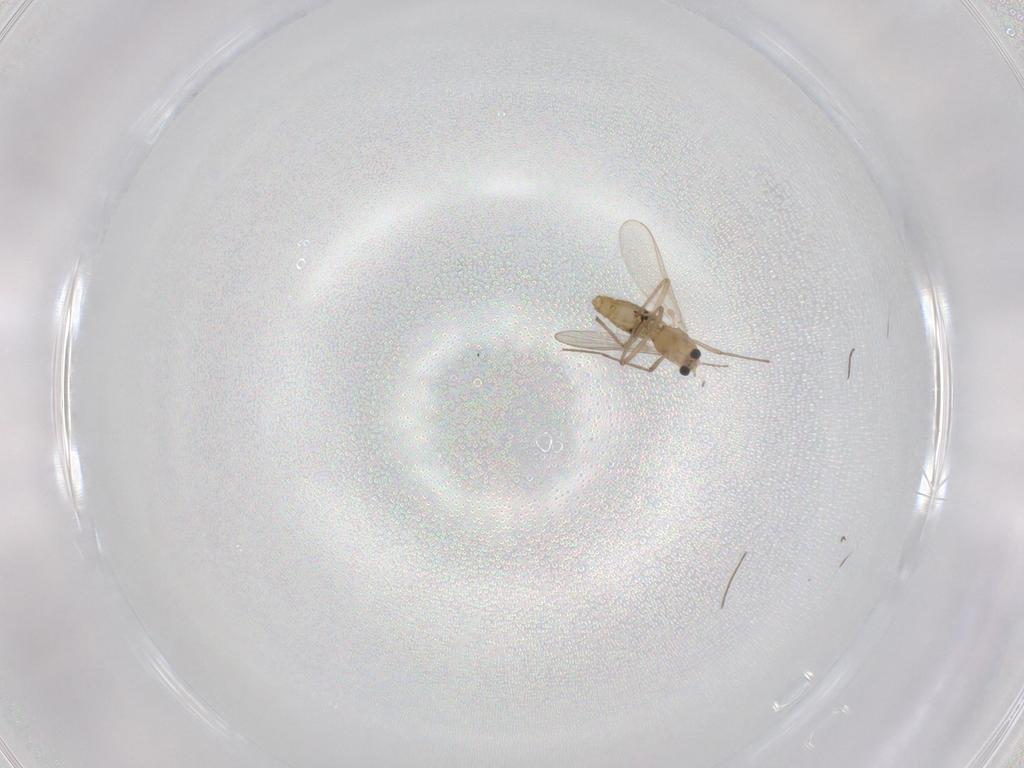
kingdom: Animalia
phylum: Arthropoda
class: Insecta
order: Diptera
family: Chironomidae
